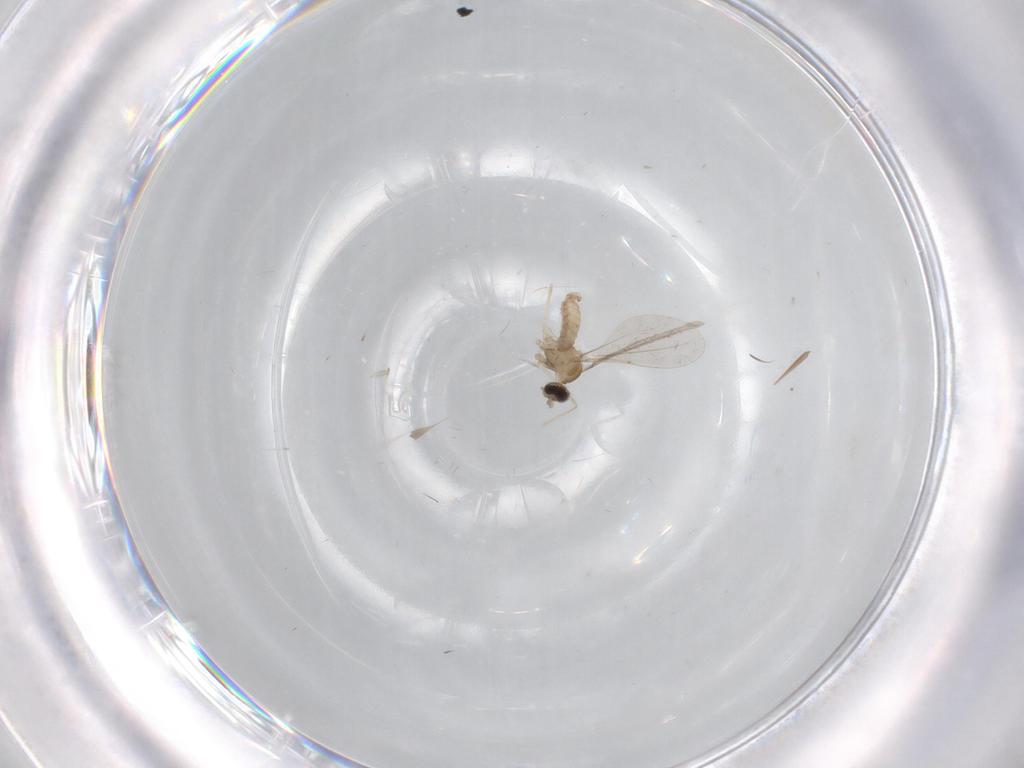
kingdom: Animalia
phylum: Arthropoda
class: Insecta
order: Diptera
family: Cecidomyiidae
